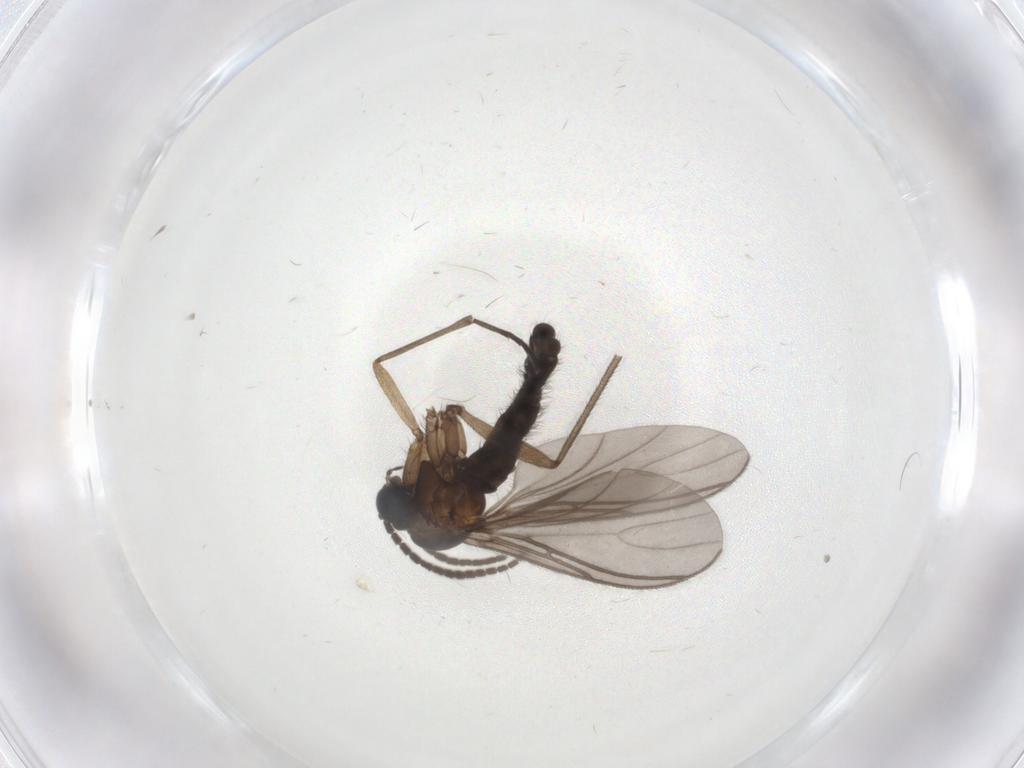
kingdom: Animalia
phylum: Arthropoda
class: Insecta
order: Diptera
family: Sciaridae
